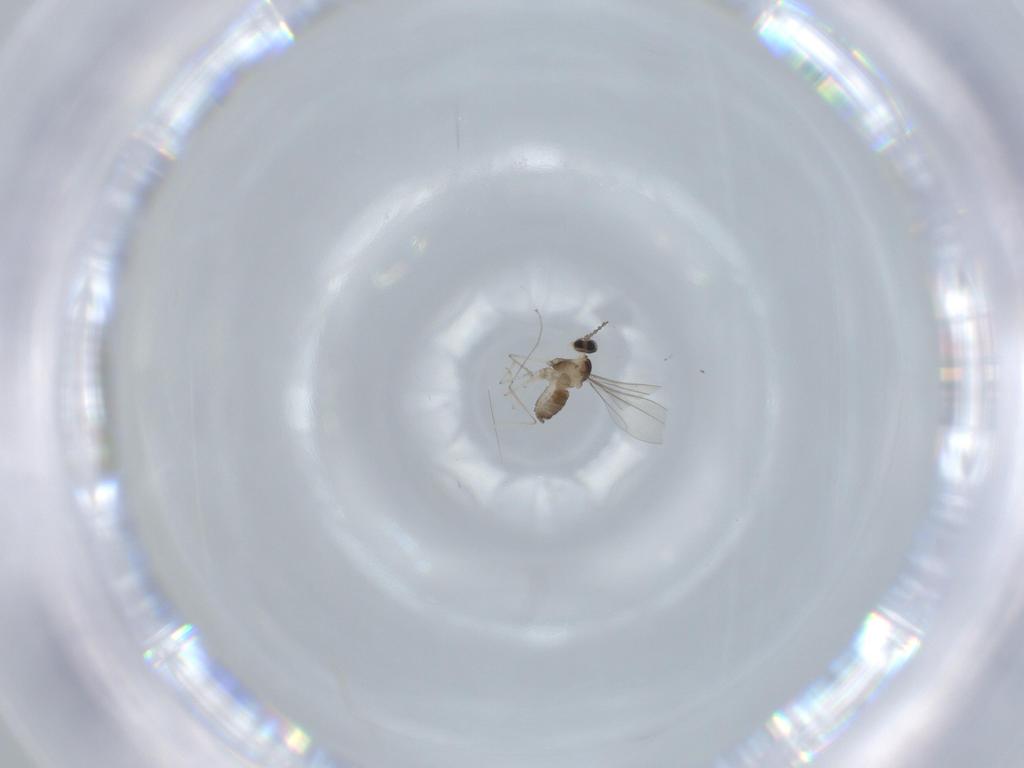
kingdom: Animalia
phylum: Arthropoda
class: Insecta
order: Diptera
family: Cecidomyiidae
